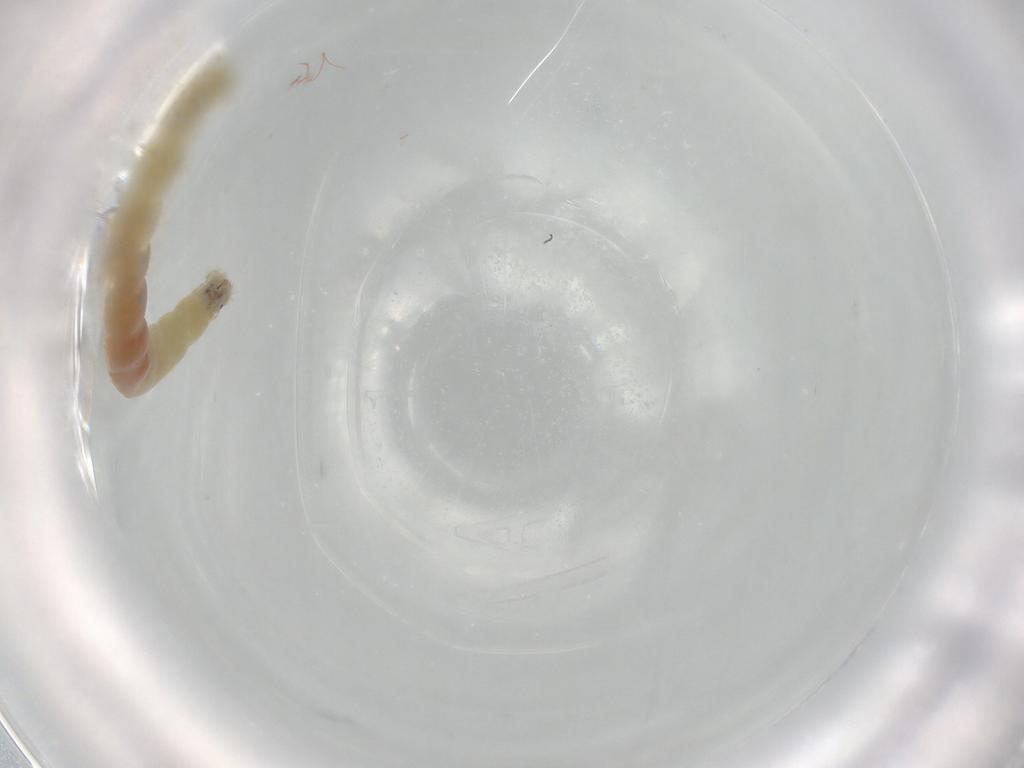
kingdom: Animalia
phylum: Arthropoda
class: Insecta
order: Diptera
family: Chironomidae
